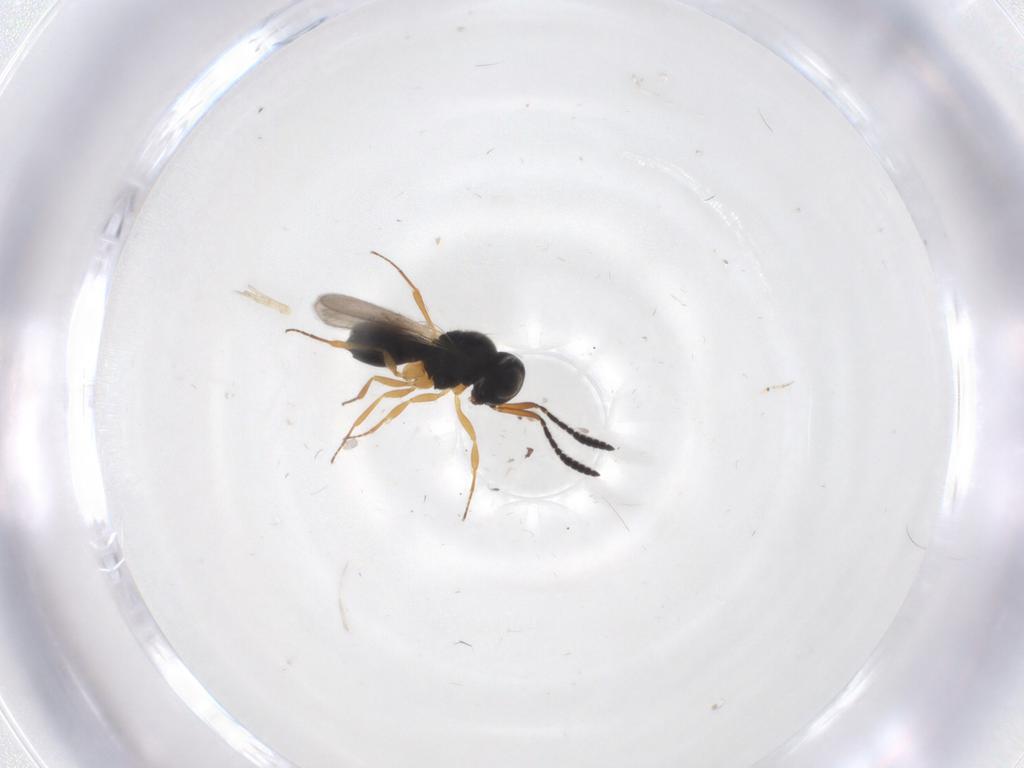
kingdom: Animalia
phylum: Arthropoda
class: Insecta
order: Hymenoptera
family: Scelionidae
